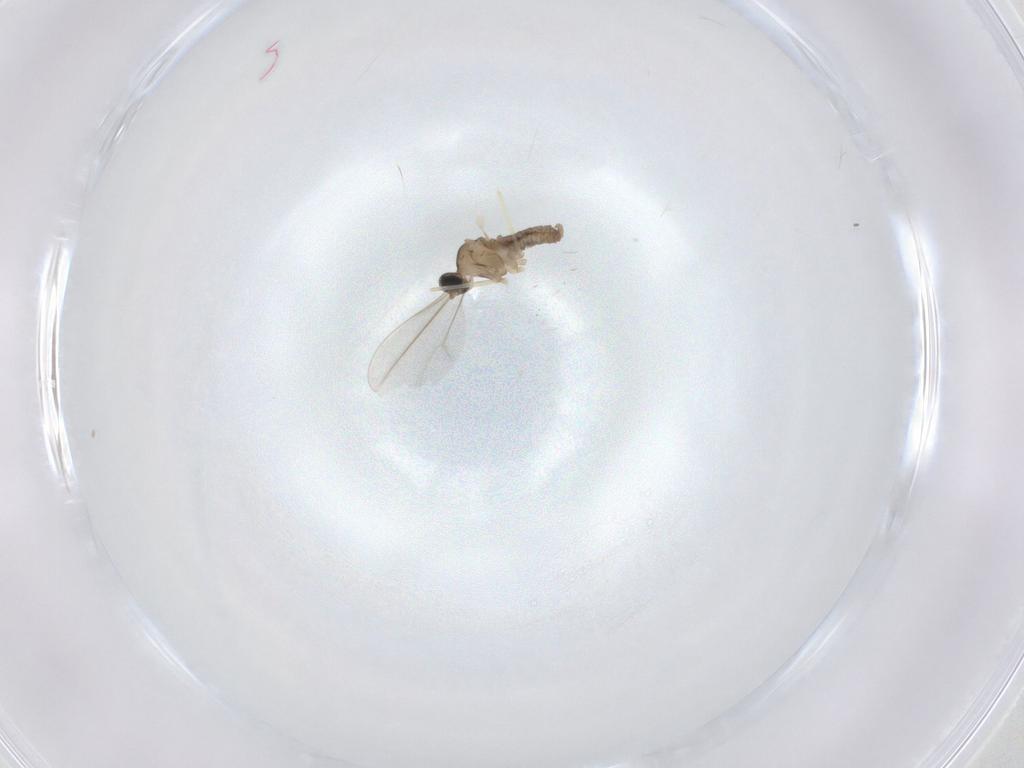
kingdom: Animalia
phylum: Arthropoda
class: Insecta
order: Diptera
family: Cecidomyiidae
